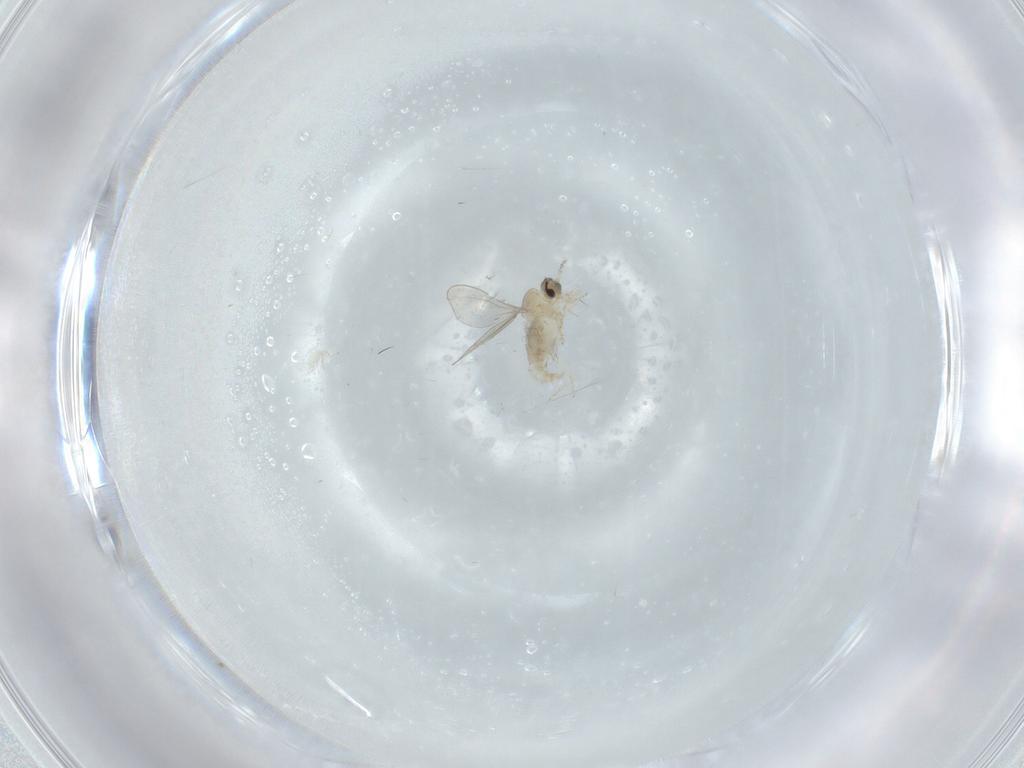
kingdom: Animalia
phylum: Arthropoda
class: Insecta
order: Diptera
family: Cecidomyiidae
